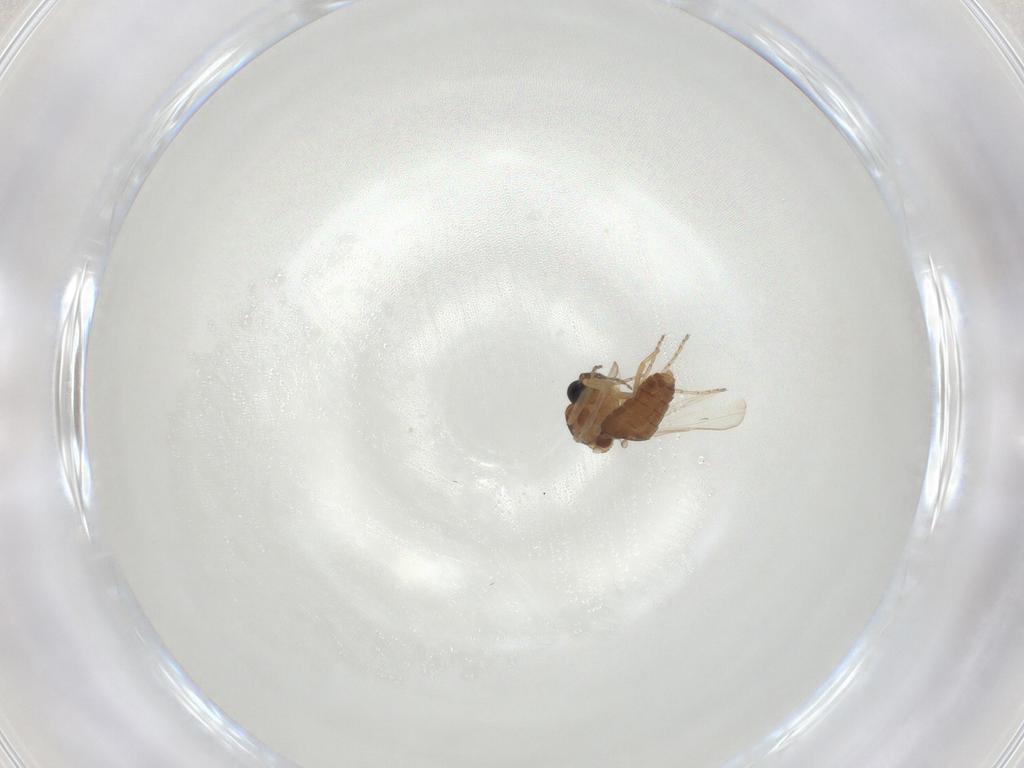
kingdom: Animalia
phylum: Arthropoda
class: Insecta
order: Diptera
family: Ceratopogonidae
